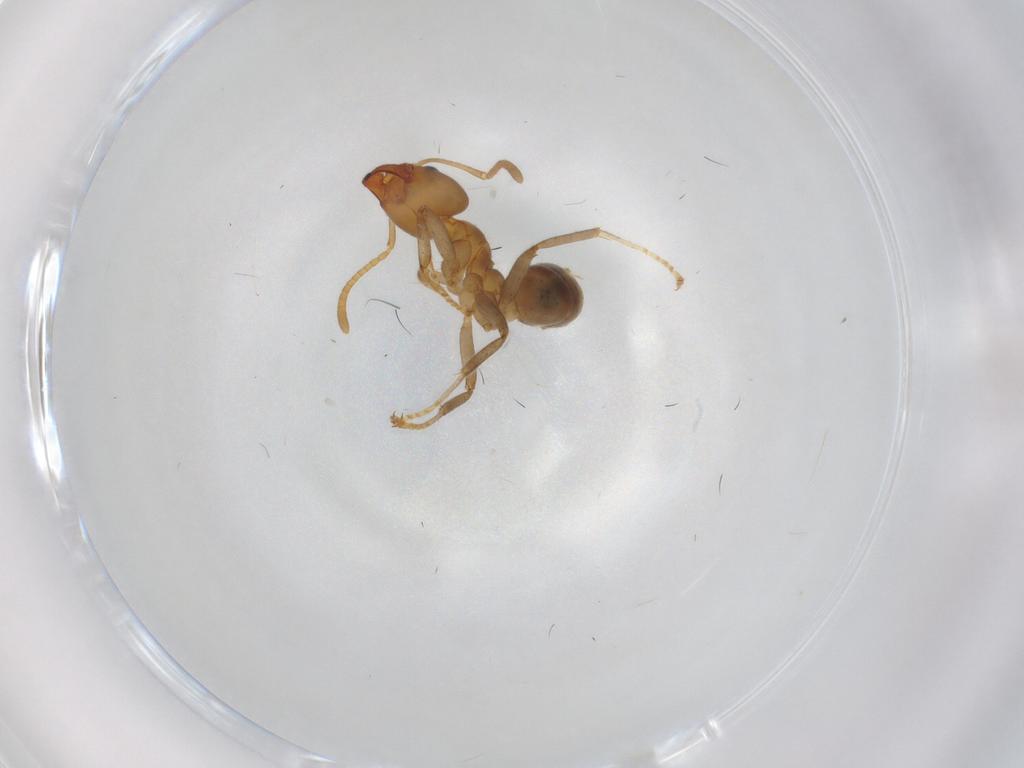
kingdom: Animalia
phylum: Arthropoda
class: Insecta
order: Hymenoptera
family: Formicidae
